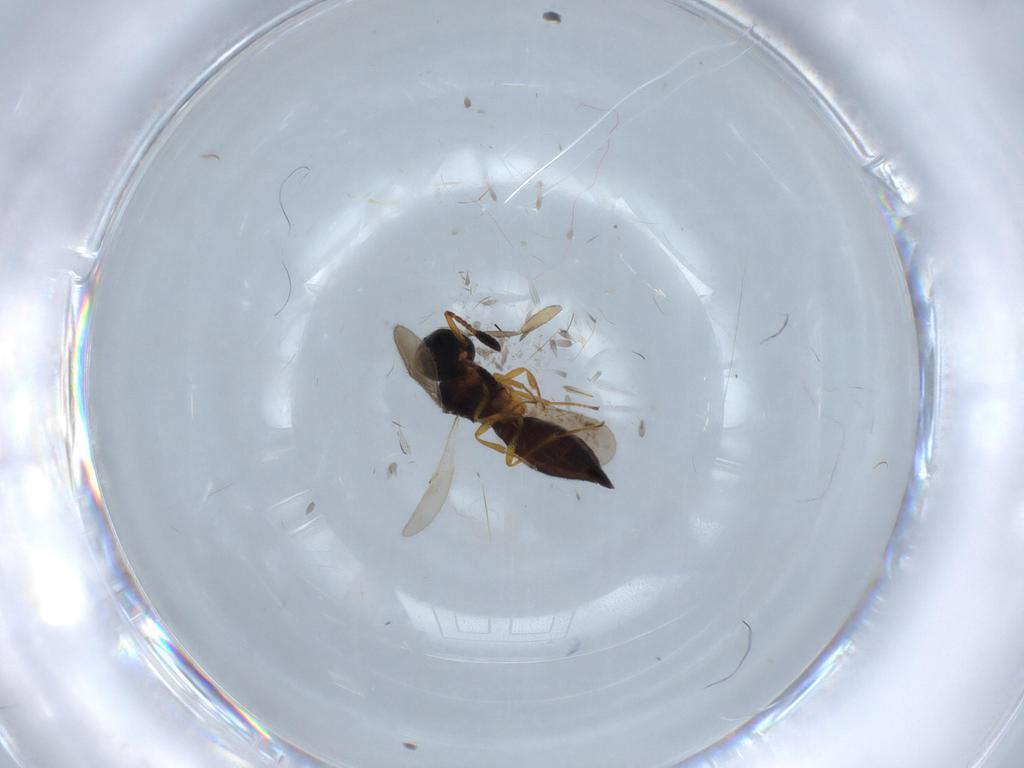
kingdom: Animalia
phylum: Arthropoda
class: Insecta
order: Hymenoptera
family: Bethylidae
